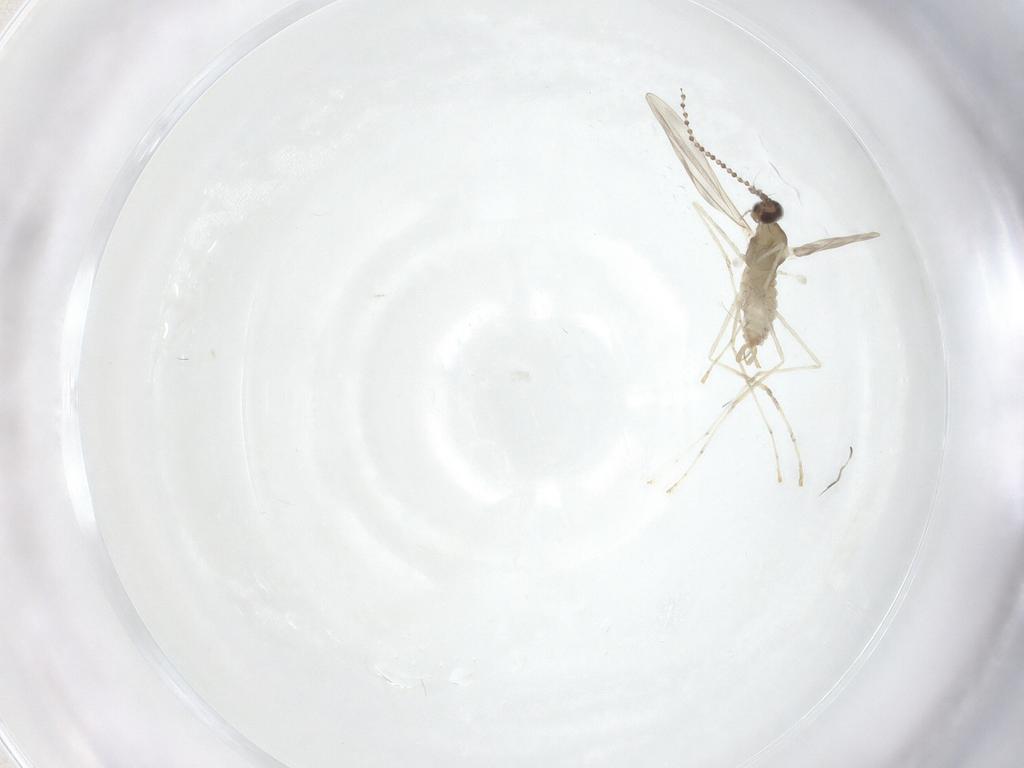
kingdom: Animalia
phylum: Arthropoda
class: Insecta
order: Diptera
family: Cecidomyiidae
